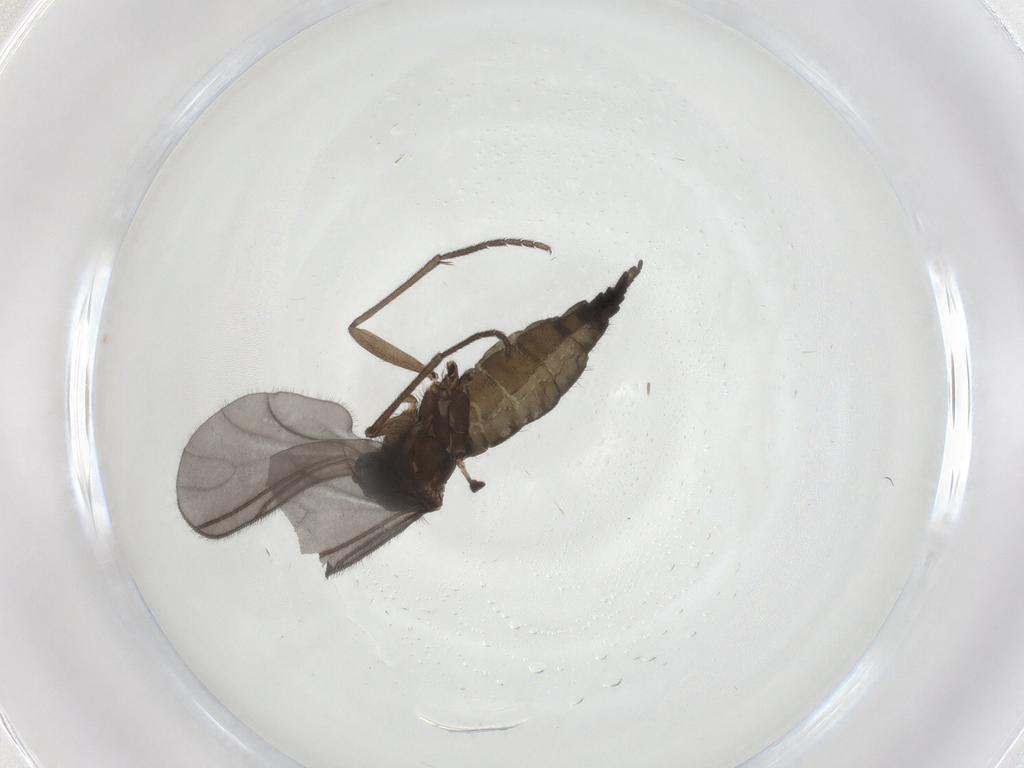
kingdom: Animalia
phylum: Arthropoda
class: Insecta
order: Diptera
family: Sciaridae
